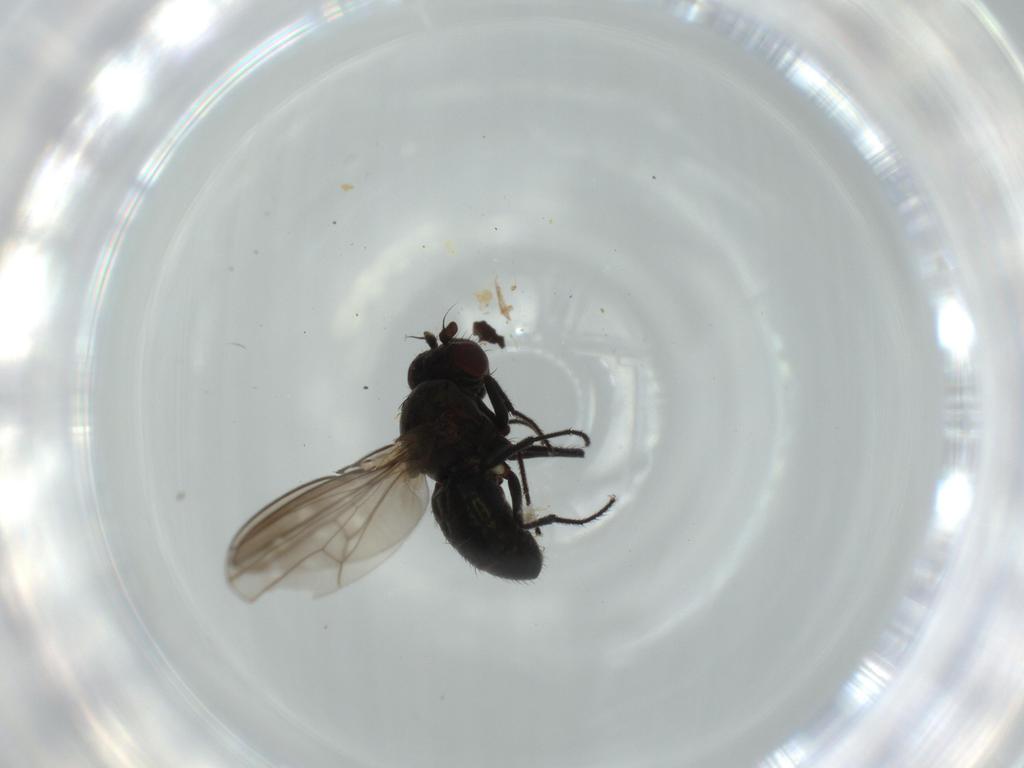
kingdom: Animalia
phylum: Arthropoda
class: Insecta
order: Diptera
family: Ephydridae
